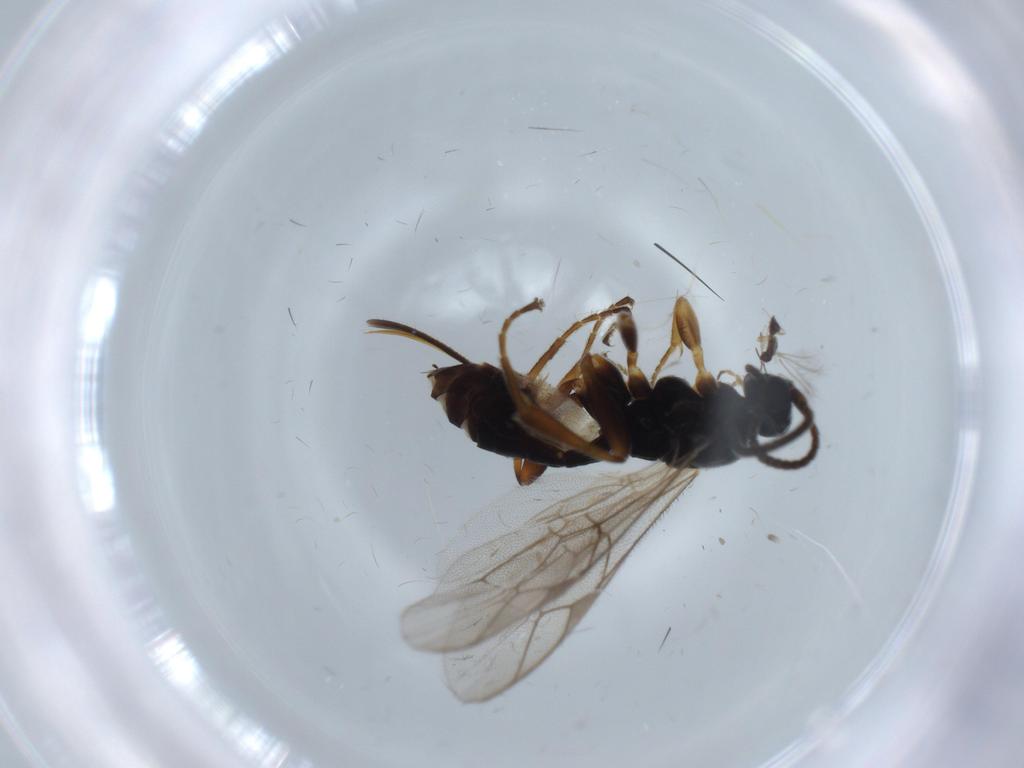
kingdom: Animalia
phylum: Arthropoda
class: Insecta
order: Hymenoptera
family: Ichneumonidae
